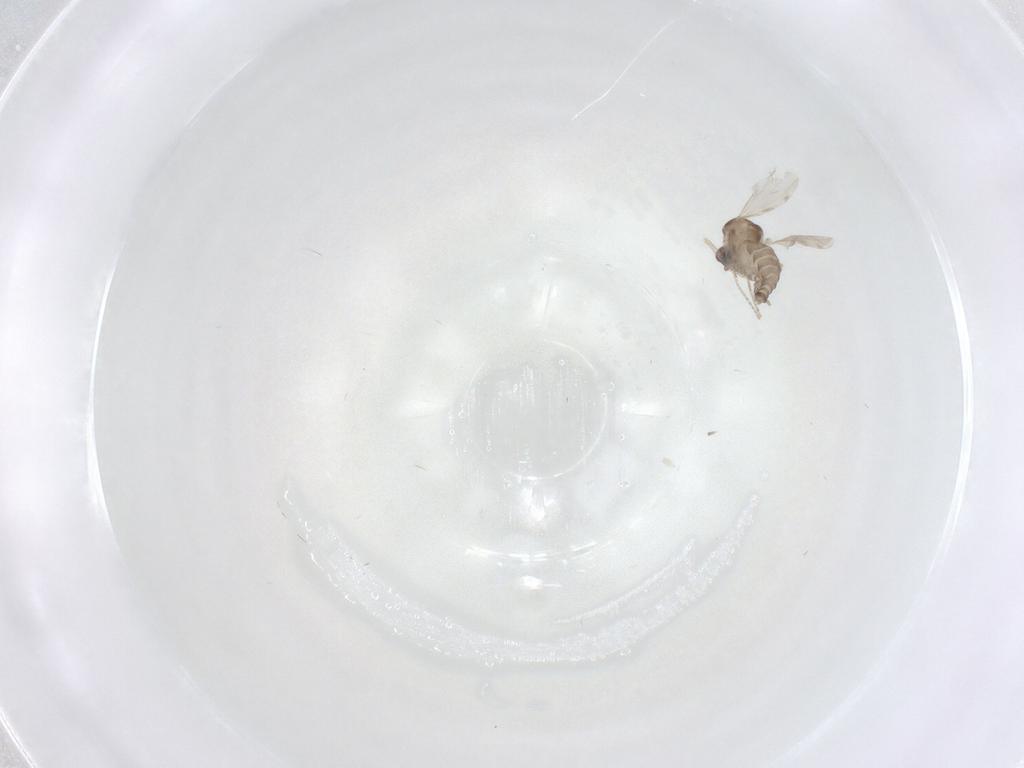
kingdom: Animalia
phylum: Arthropoda
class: Insecta
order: Diptera
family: Ceratopogonidae
